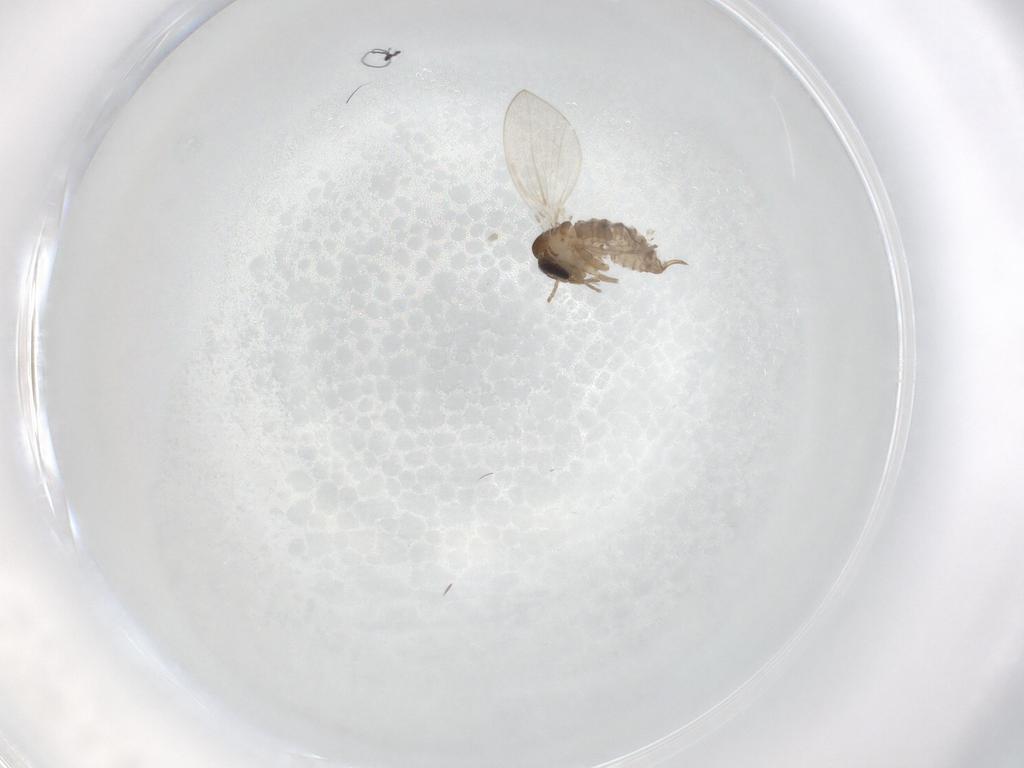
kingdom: Animalia
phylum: Arthropoda
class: Insecta
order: Diptera
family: Psychodidae
